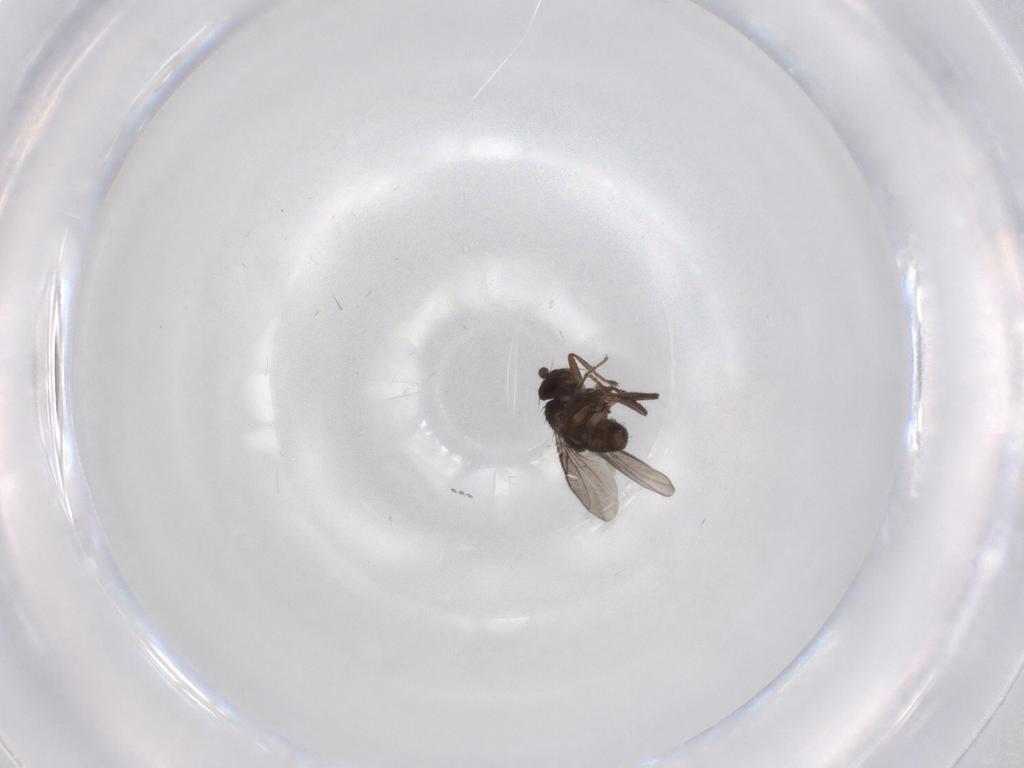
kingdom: Animalia
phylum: Arthropoda
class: Insecta
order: Diptera
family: Sphaeroceridae
